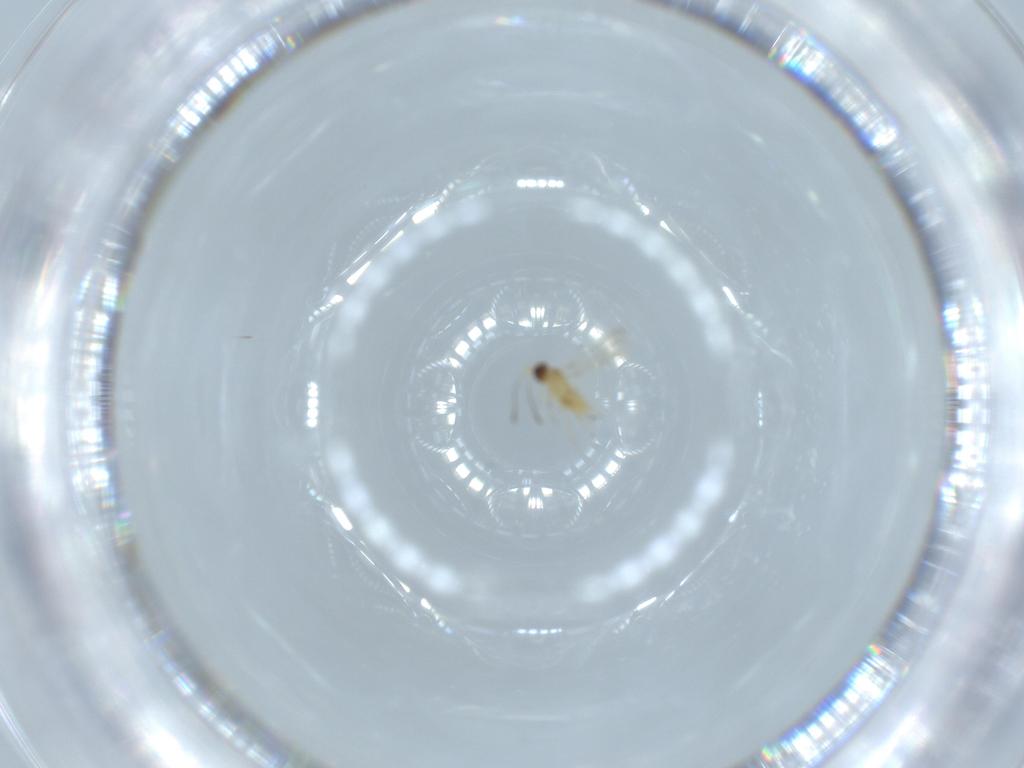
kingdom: Animalia
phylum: Arthropoda
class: Insecta
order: Hymenoptera
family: Mymaridae
